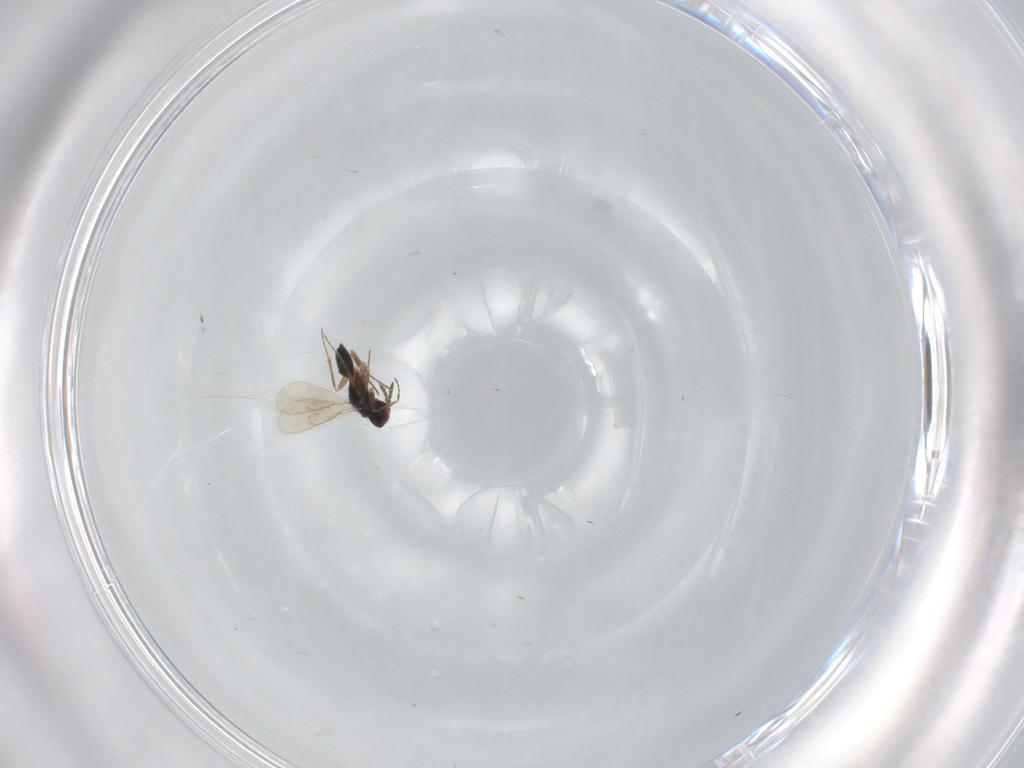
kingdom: Animalia
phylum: Arthropoda
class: Insecta
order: Hymenoptera
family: Tetracampidae
